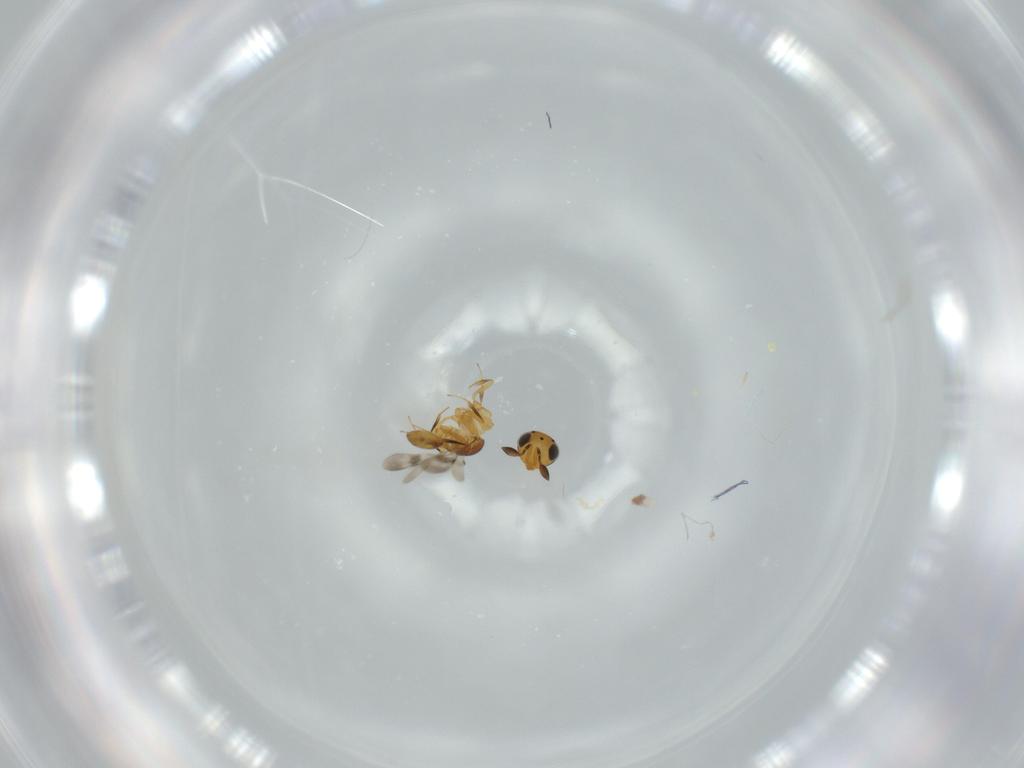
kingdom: Animalia
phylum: Arthropoda
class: Insecta
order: Hymenoptera
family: Scelionidae
